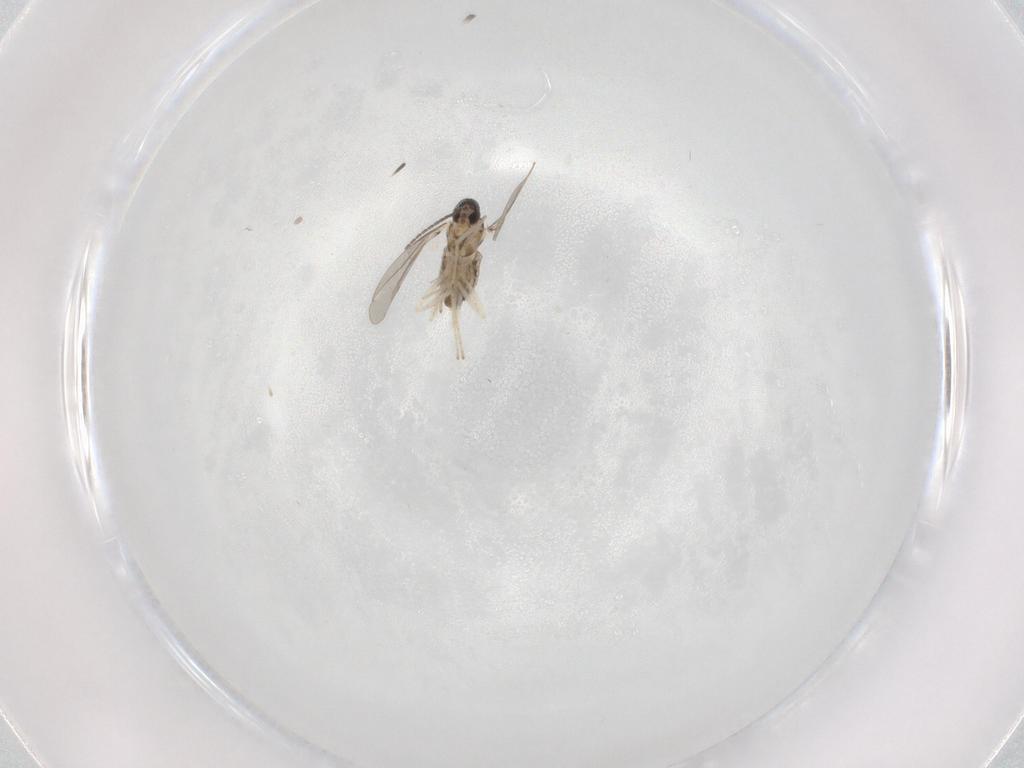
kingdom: Animalia
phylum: Arthropoda
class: Insecta
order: Diptera
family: Cecidomyiidae
